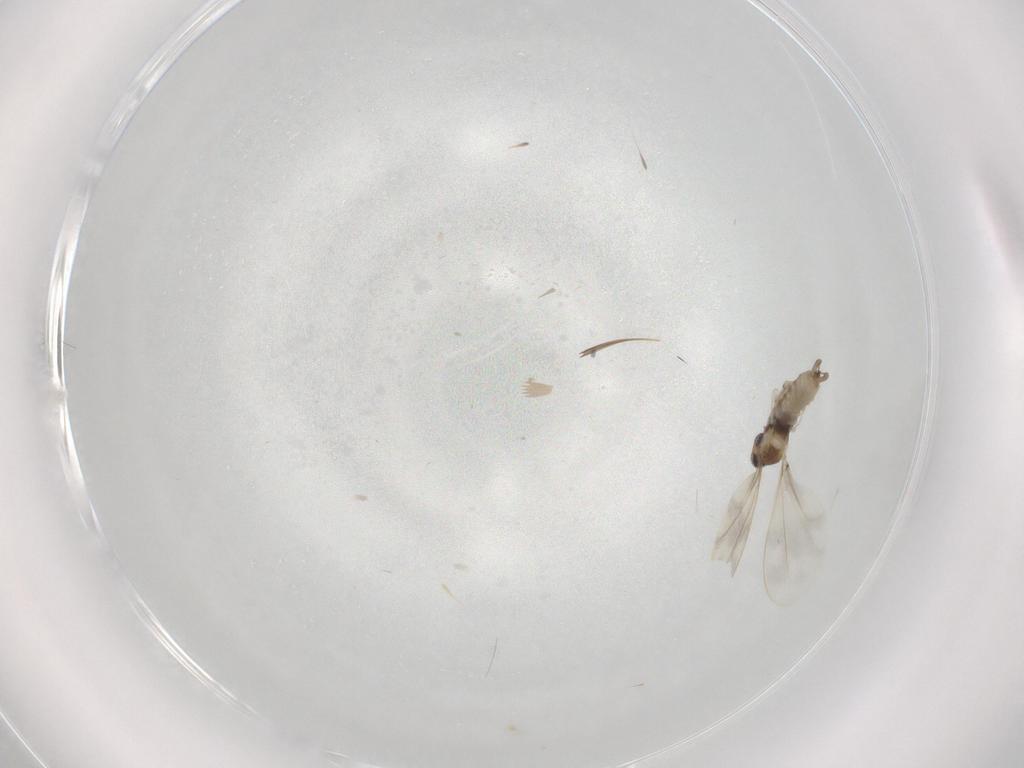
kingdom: Animalia
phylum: Arthropoda
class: Insecta
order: Diptera
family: Cecidomyiidae
